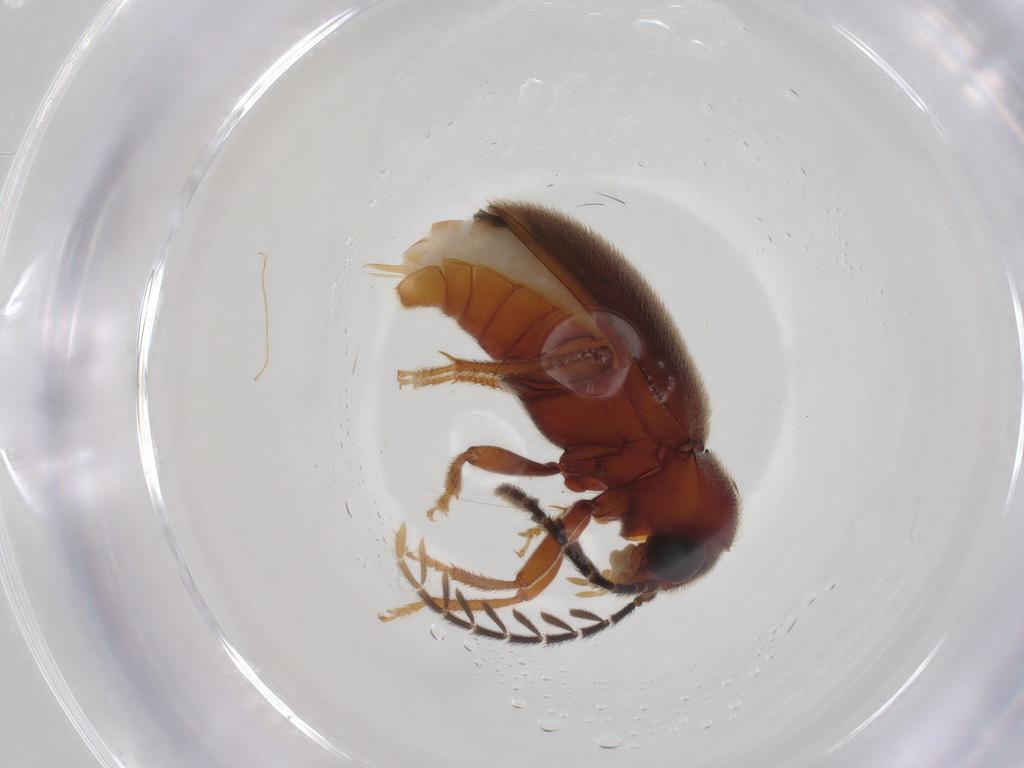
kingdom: Animalia
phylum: Arthropoda
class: Insecta
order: Coleoptera
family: Ptilodactylidae
